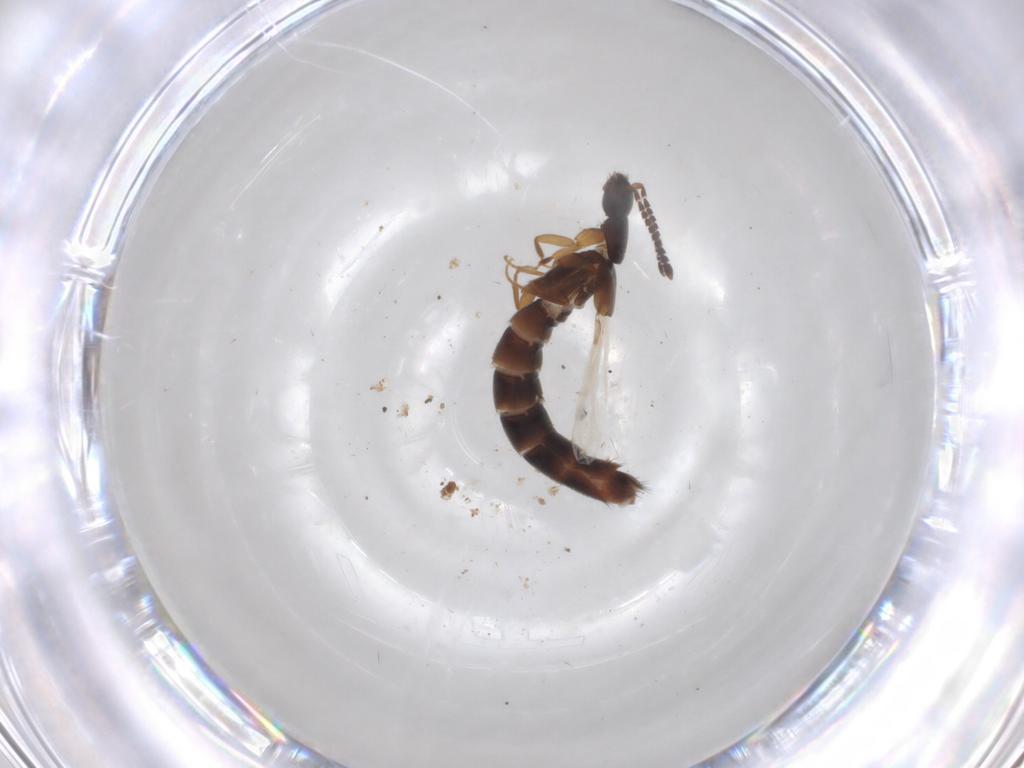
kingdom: Animalia
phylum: Arthropoda
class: Insecta
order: Coleoptera
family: Staphylinidae
